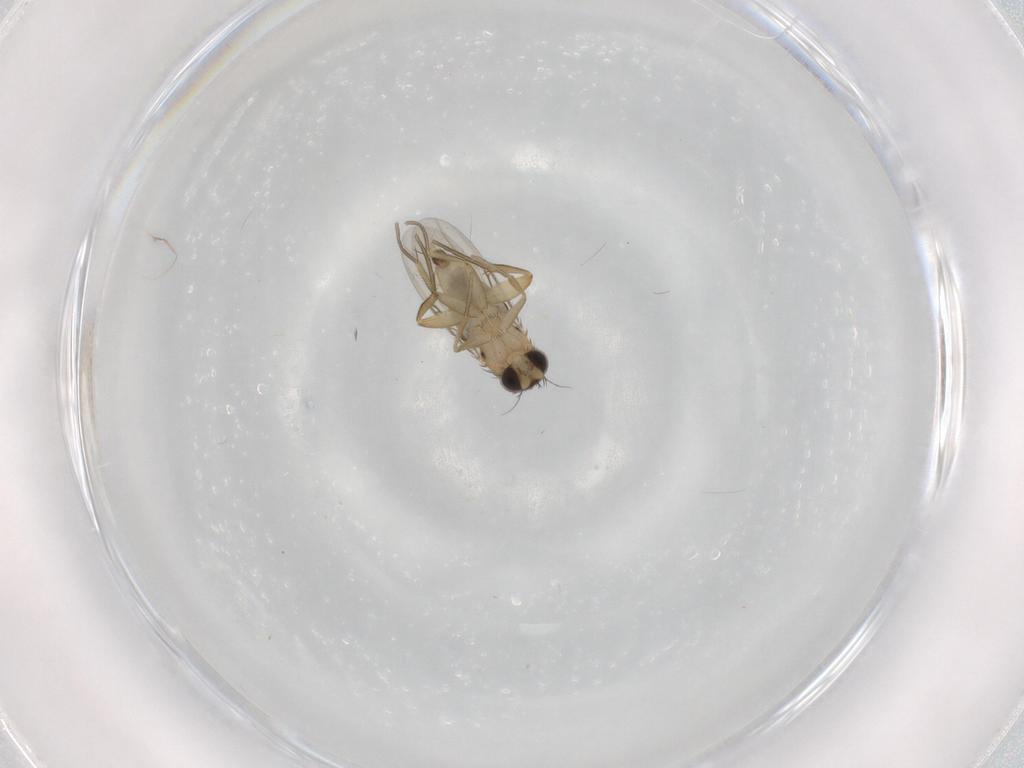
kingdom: Animalia
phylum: Arthropoda
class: Insecta
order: Diptera
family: Phoridae
